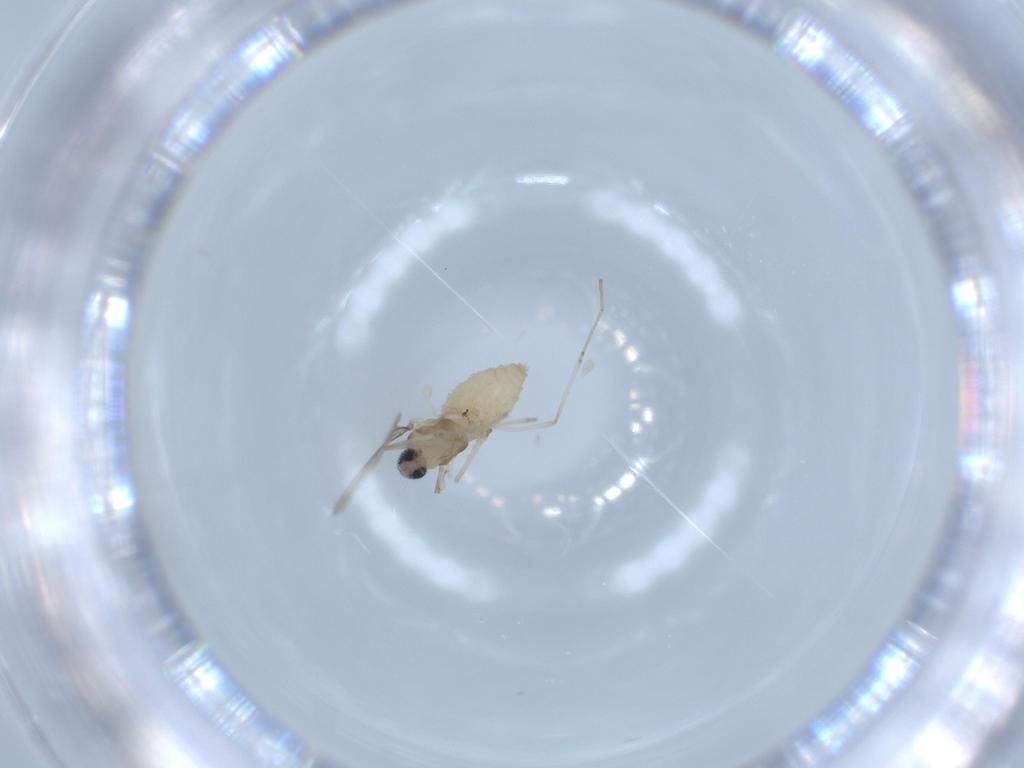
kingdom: Animalia
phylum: Arthropoda
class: Insecta
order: Diptera
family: Cecidomyiidae
